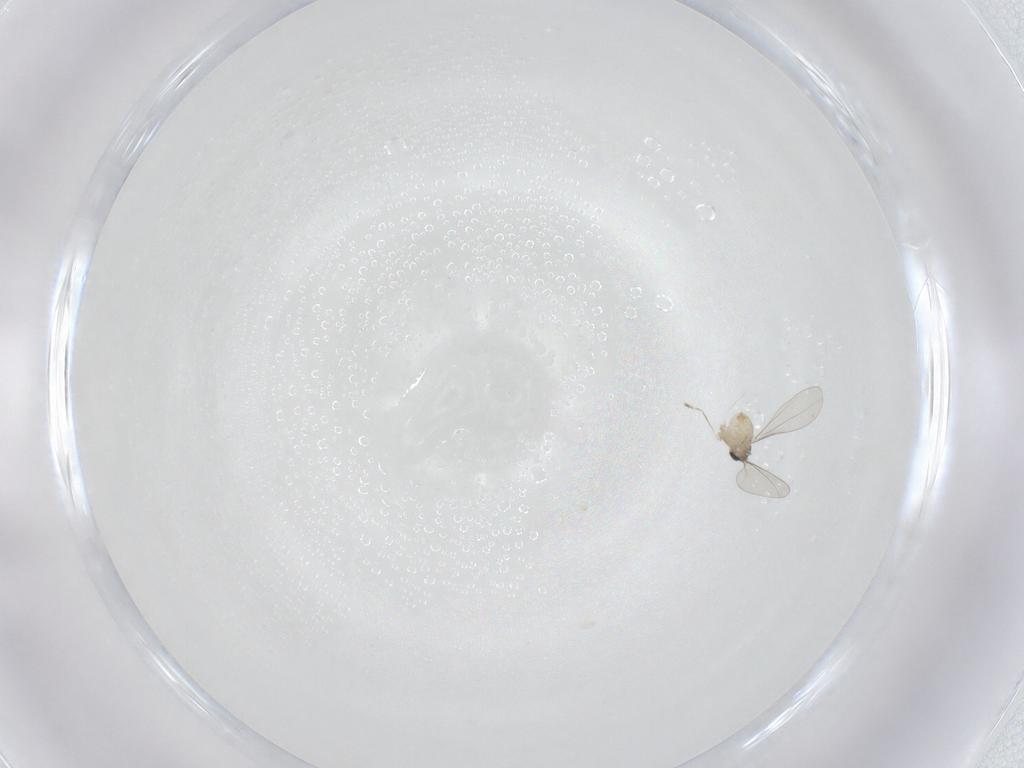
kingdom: Animalia
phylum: Arthropoda
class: Insecta
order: Diptera
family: Cecidomyiidae
